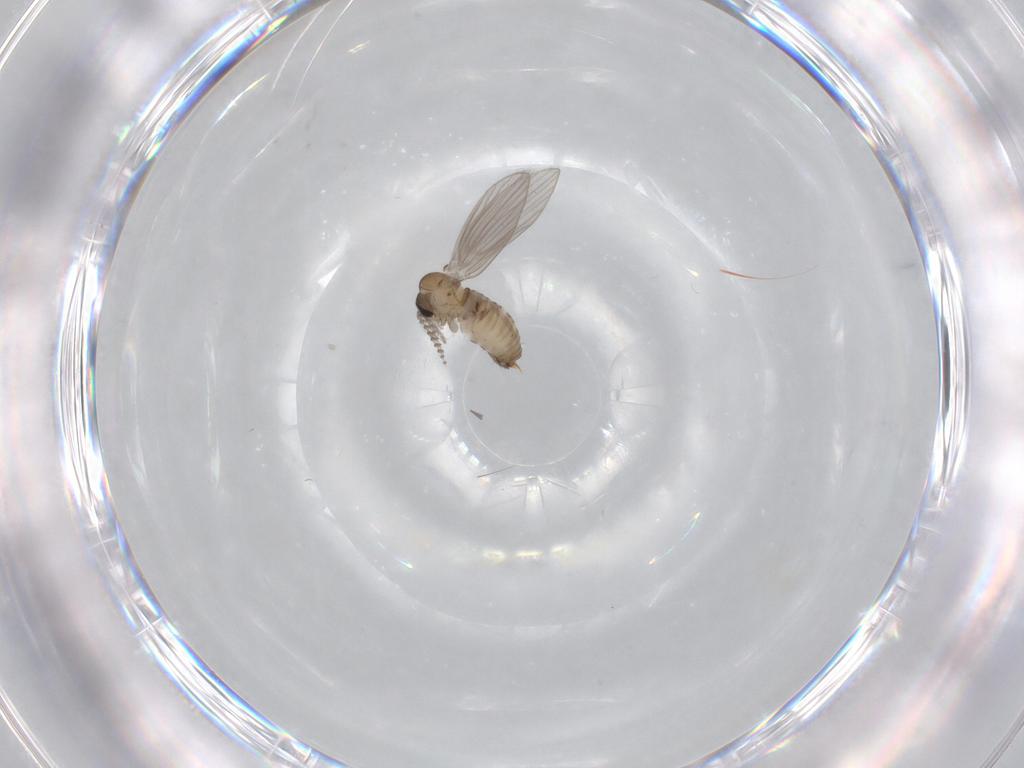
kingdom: Animalia
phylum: Arthropoda
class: Insecta
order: Diptera
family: Psychodidae
